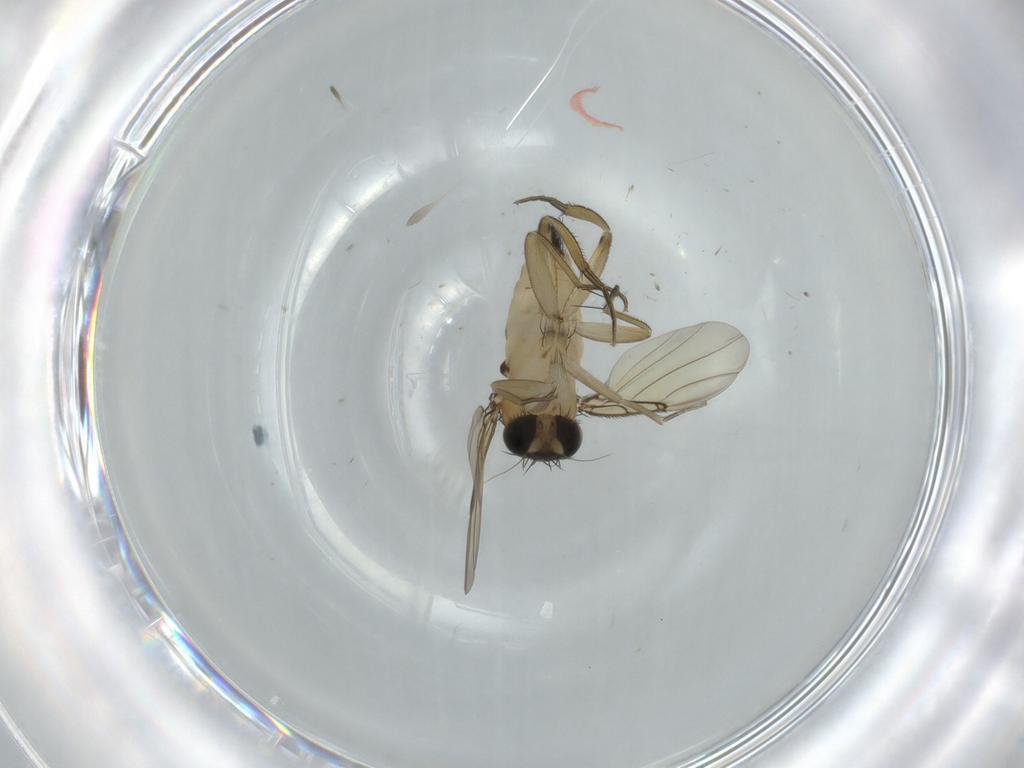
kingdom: Animalia
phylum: Arthropoda
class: Insecta
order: Diptera
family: Phoridae
